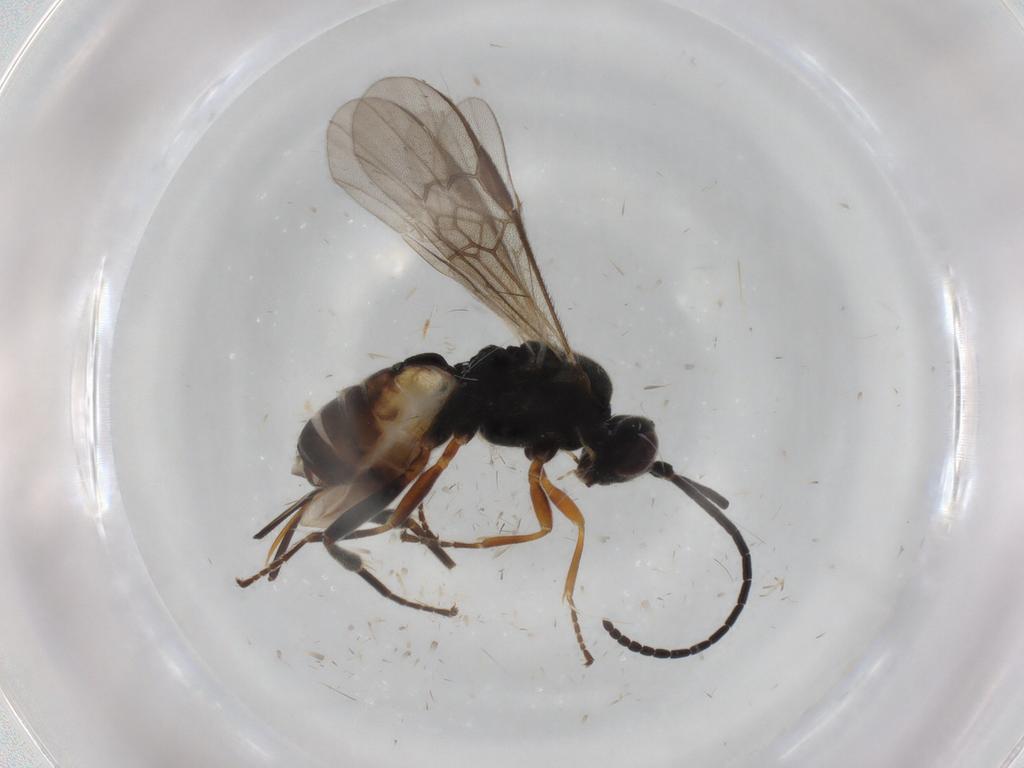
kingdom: Animalia
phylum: Arthropoda
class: Insecta
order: Hymenoptera
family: Braconidae
